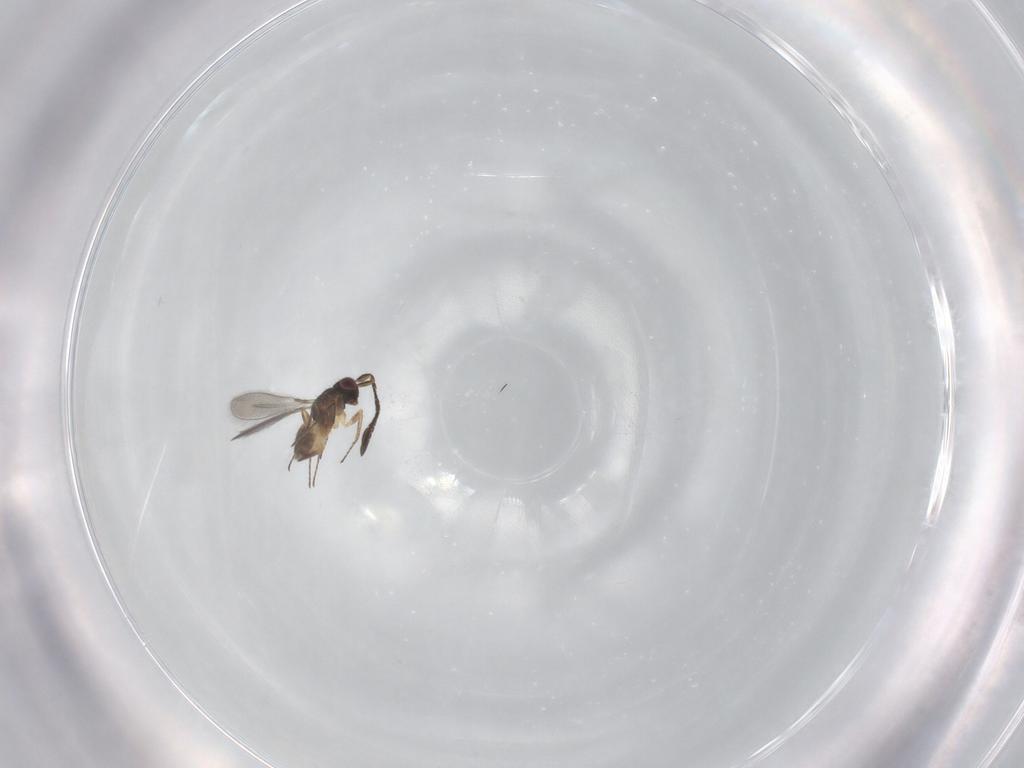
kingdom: Animalia
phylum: Arthropoda
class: Insecta
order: Hymenoptera
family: Mymaridae
